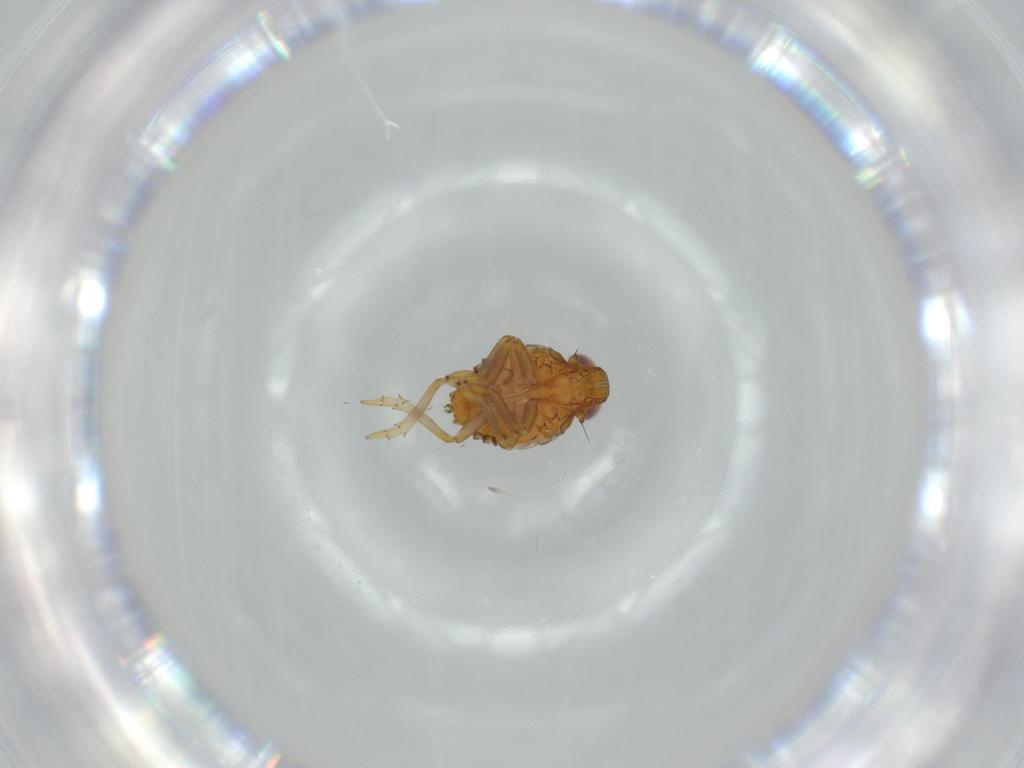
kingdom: Animalia
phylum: Arthropoda
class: Insecta
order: Hemiptera
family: Issidae
